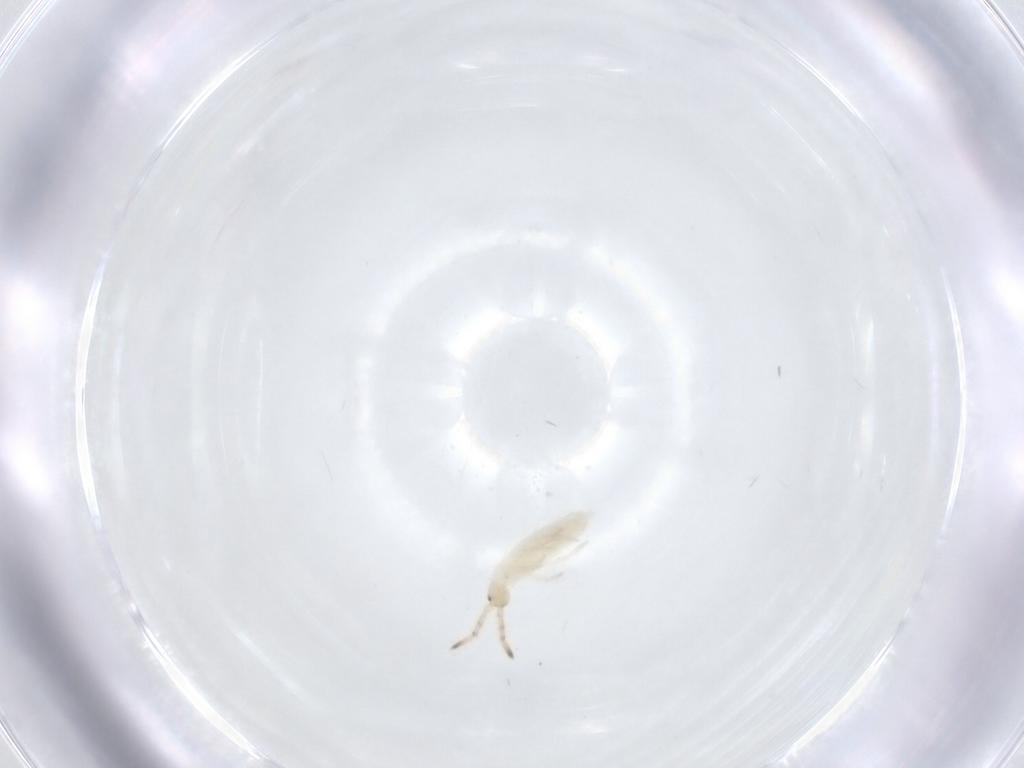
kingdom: Animalia
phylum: Arthropoda
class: Collembola
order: Entomobryomorpha
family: Entomobryidae
